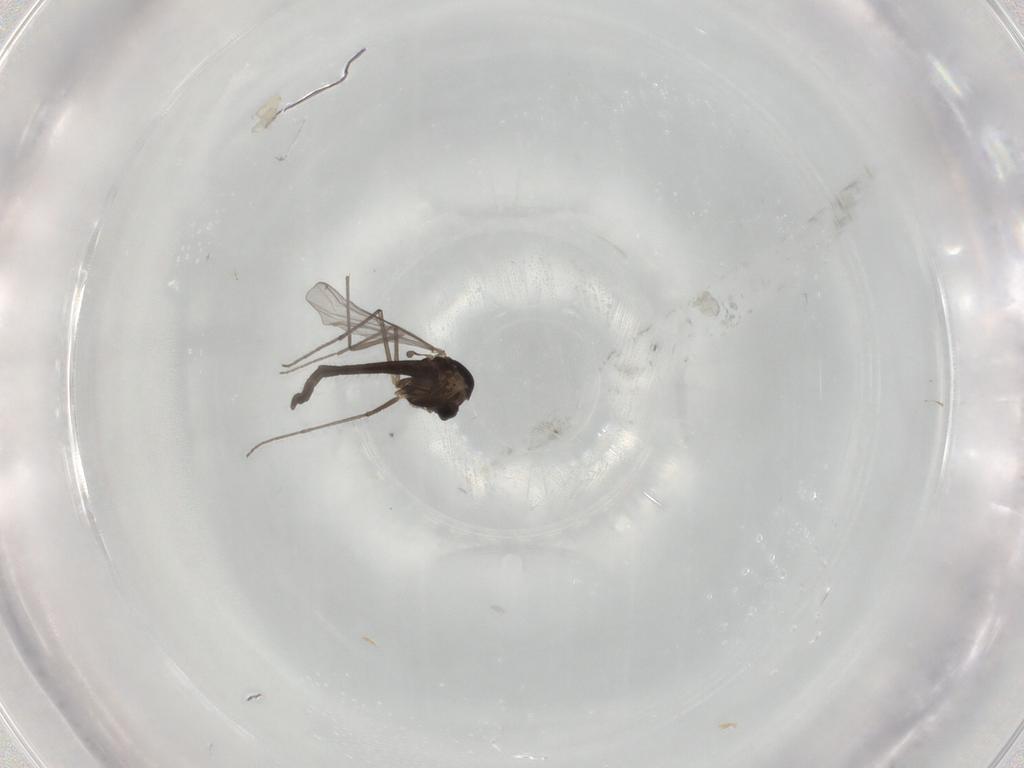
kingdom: Animalia
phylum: Arthropoda
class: Insecta
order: Diptera
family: Chironomidae
